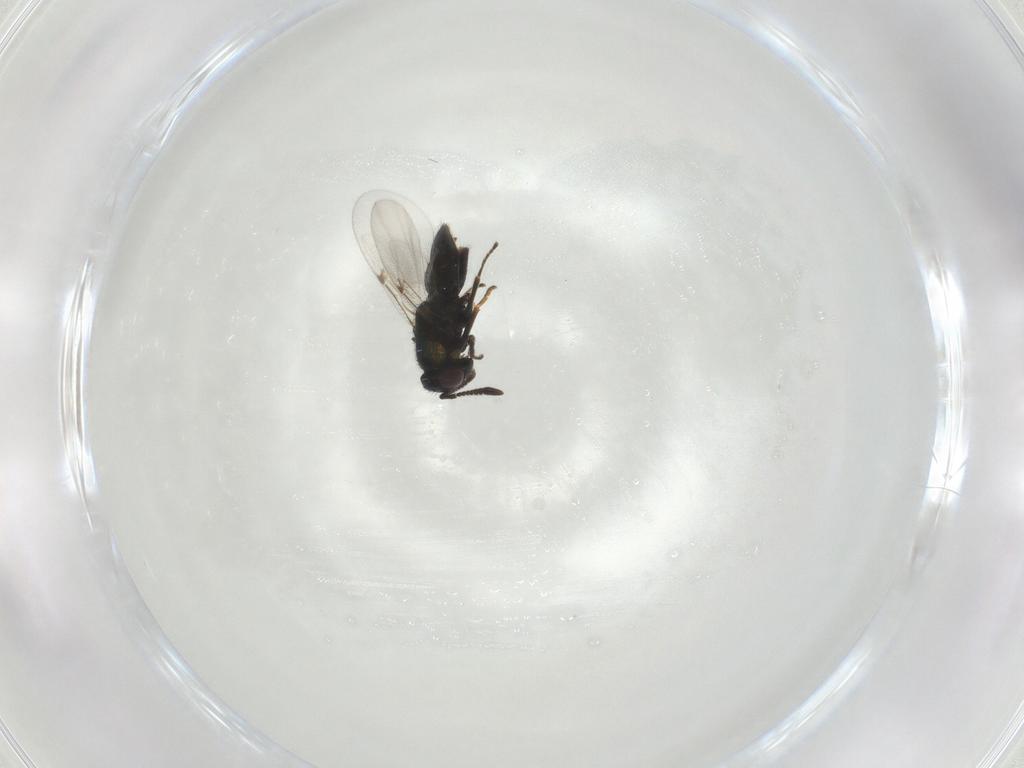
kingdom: Animalia
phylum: Arthropoda
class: Insecta
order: Hymenoptera
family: Encyrtidae
